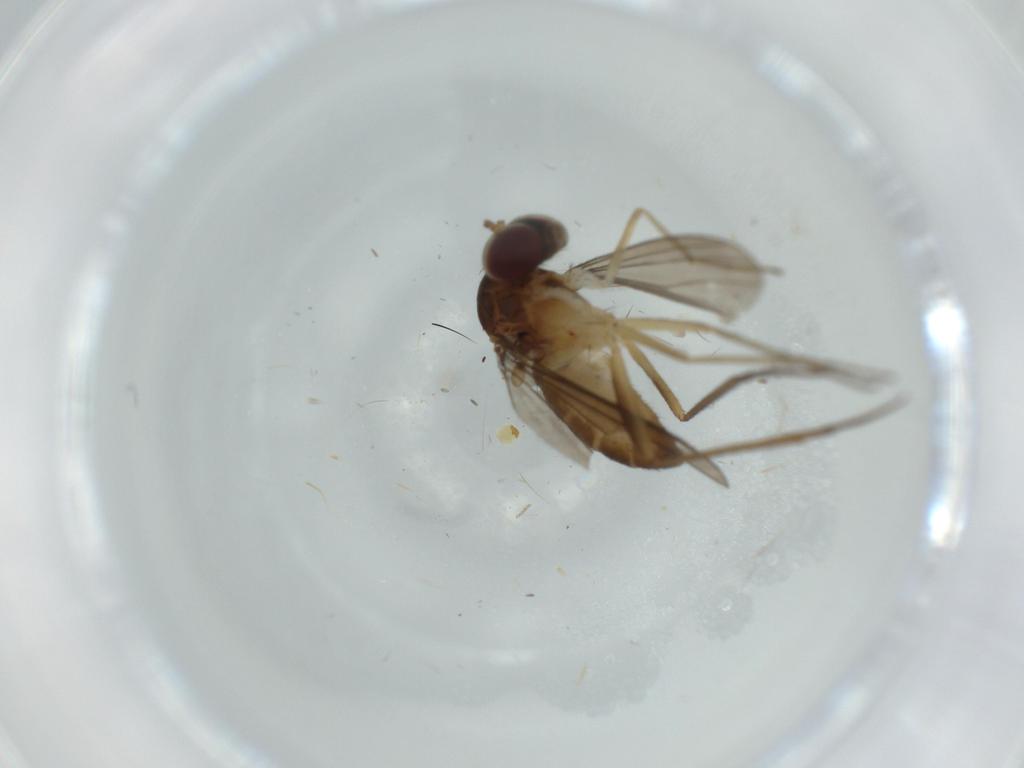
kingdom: Animalia
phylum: Arthropoda
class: Insecta
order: Diptera
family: Dolichopodidae
